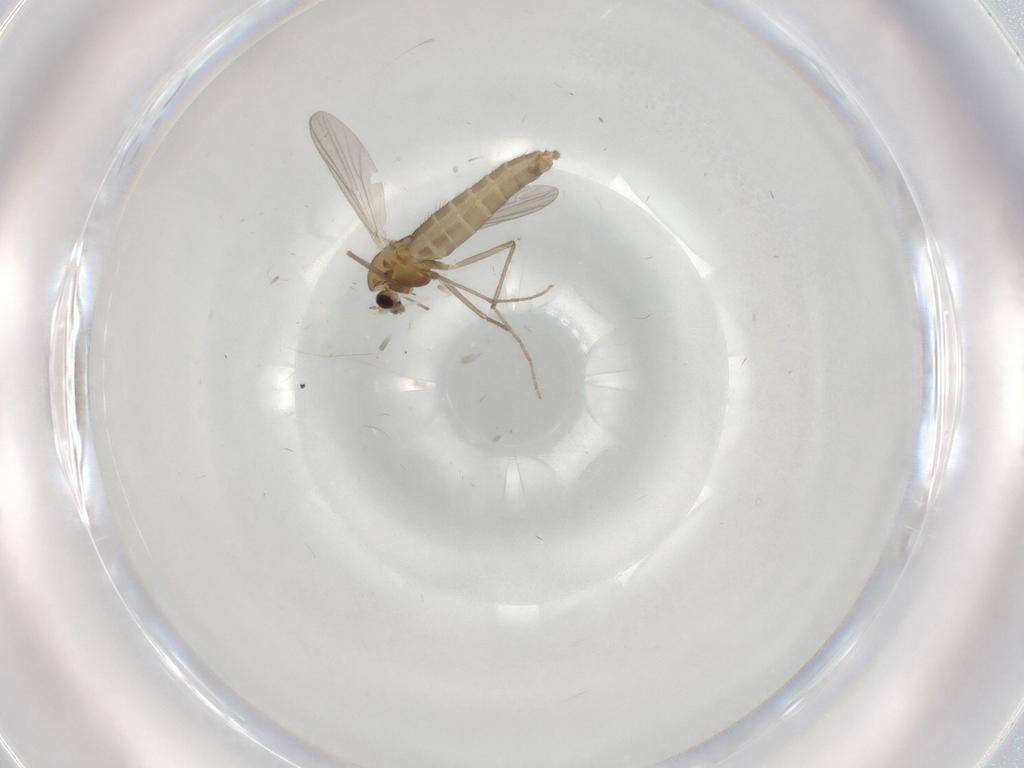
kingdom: Animalia
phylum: Arthropoda
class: Insecta
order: Diptera
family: Chironomidae
